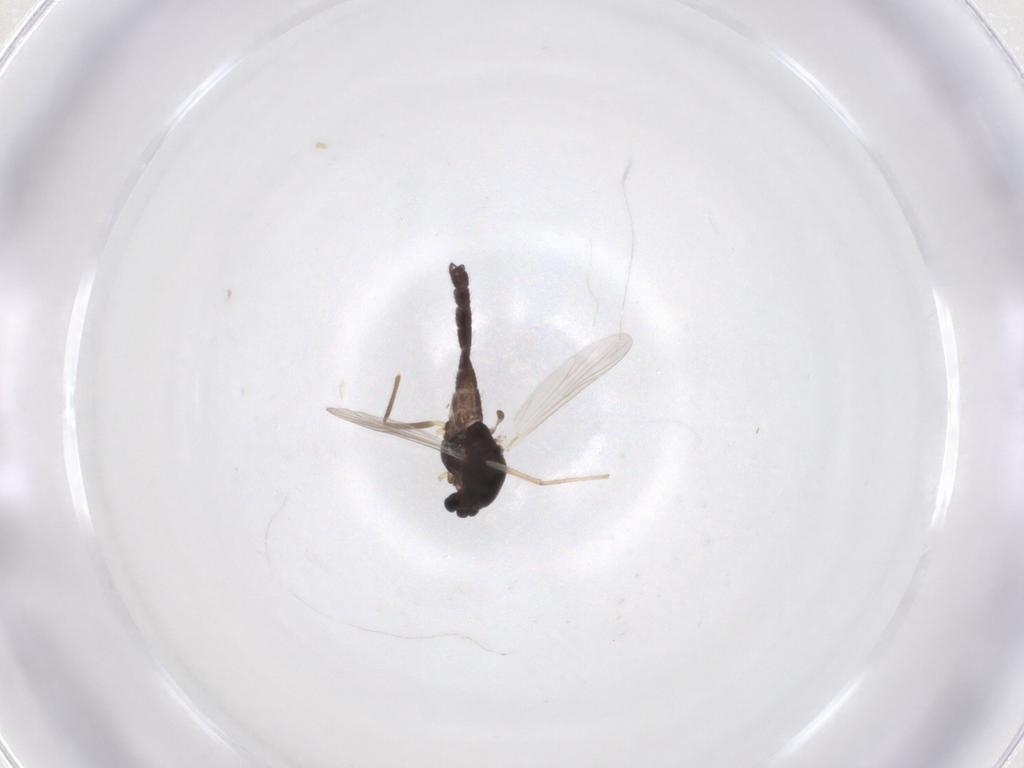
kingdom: Animalia
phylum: Arthropoda
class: Insecta
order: Diptera
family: Chironomidae
